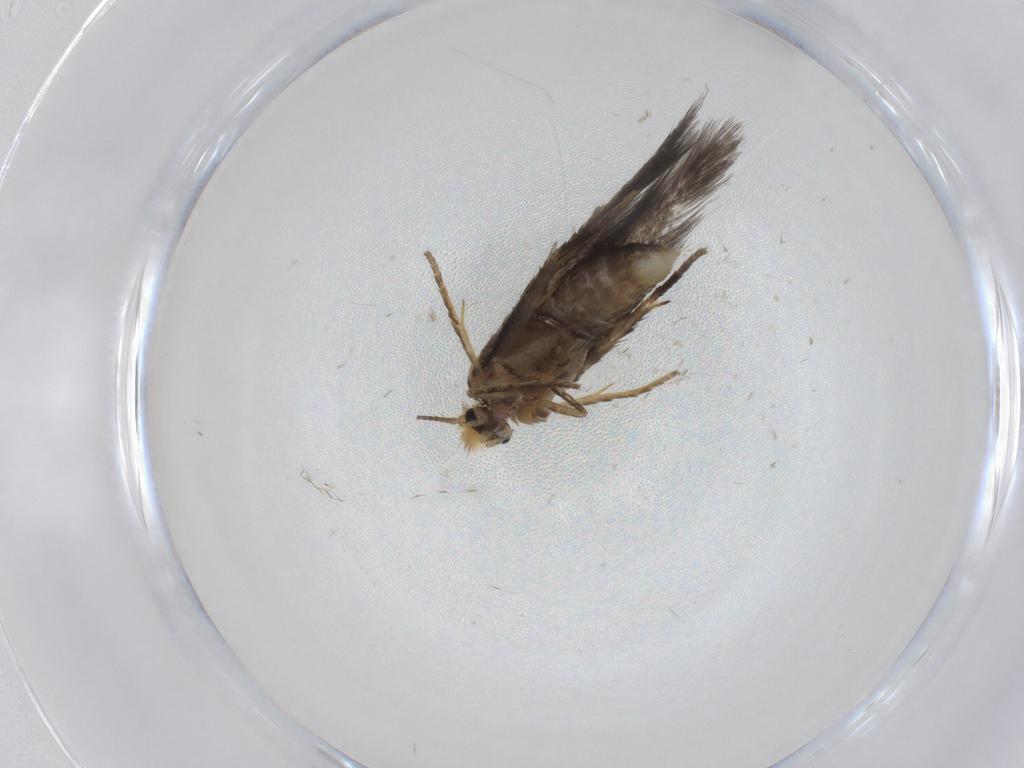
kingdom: Animalia
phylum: Arthropoda
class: Insecta
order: Lepidoptera
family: Nepticulidae
